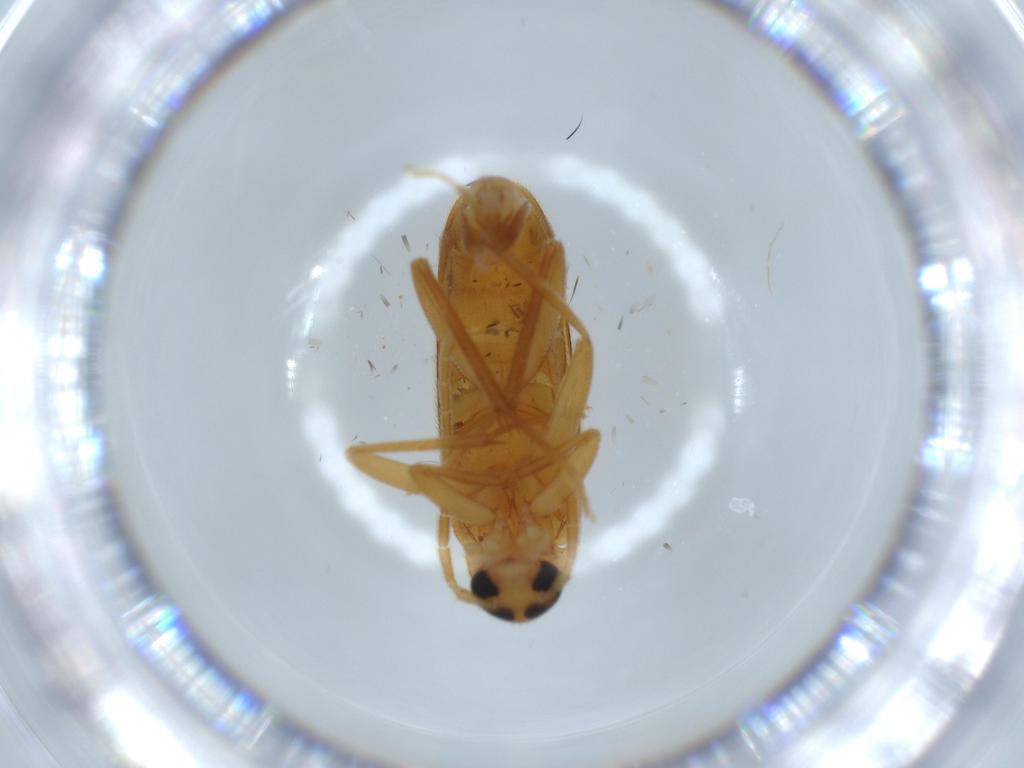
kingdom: Animalia
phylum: Arthropoda
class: Insecta
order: Coleoptera
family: Scraptiidae
